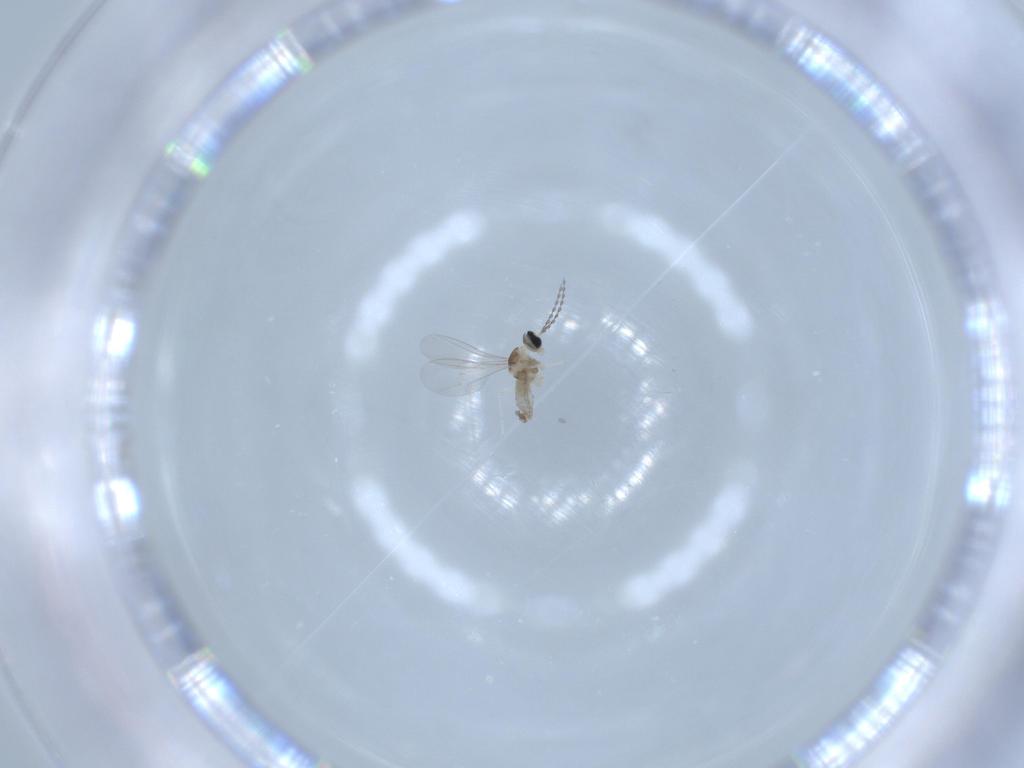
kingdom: Animalia
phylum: Arthropoda
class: Insecta
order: Diptera
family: Cecidomyiidae
